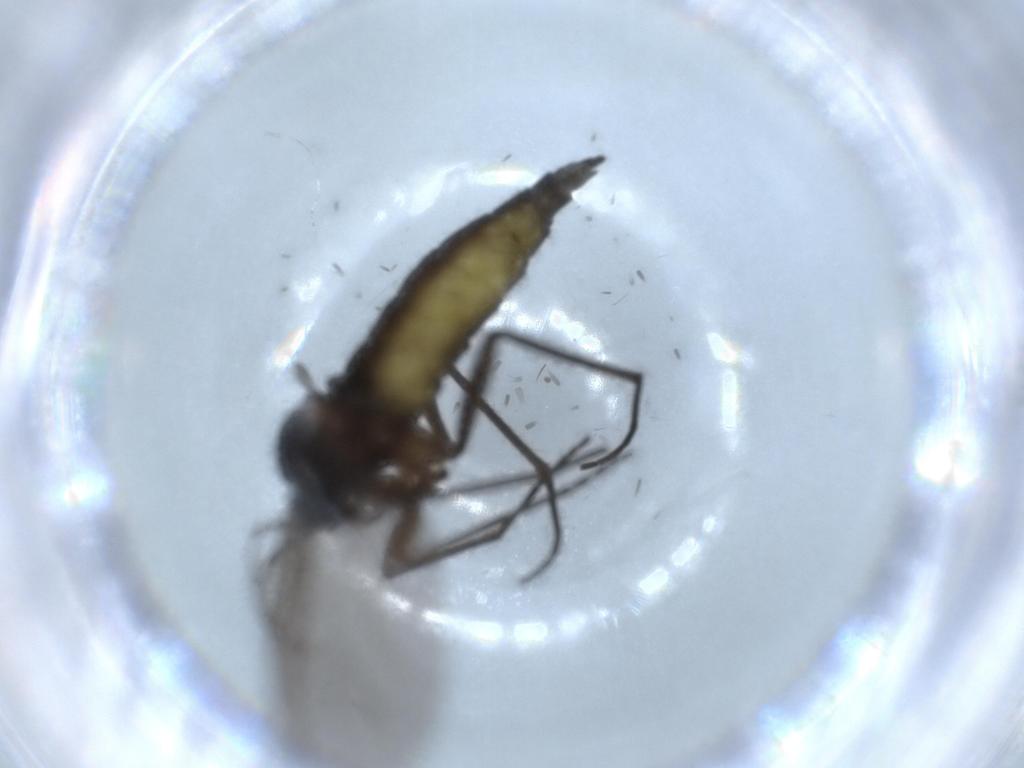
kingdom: Animalia
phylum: Arthropoda
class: Insecta
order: Diptera
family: Sciaridae
